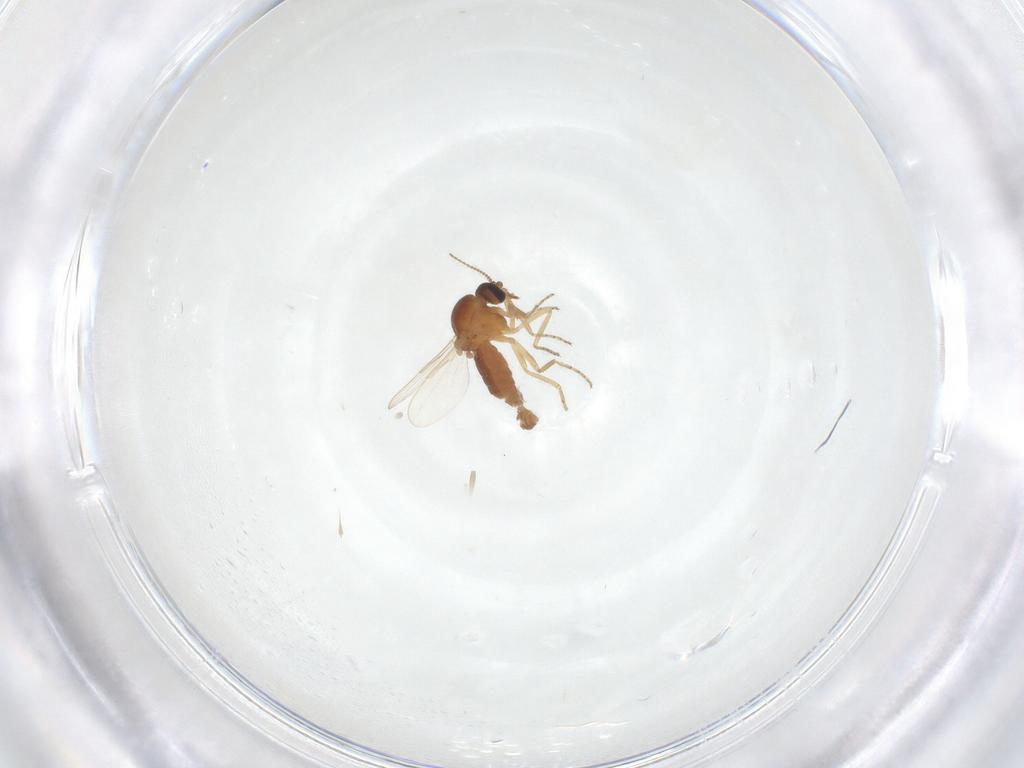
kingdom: Animalia
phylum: Arthropoda
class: Insecta
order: Diptera
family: Ceratopogonidae
